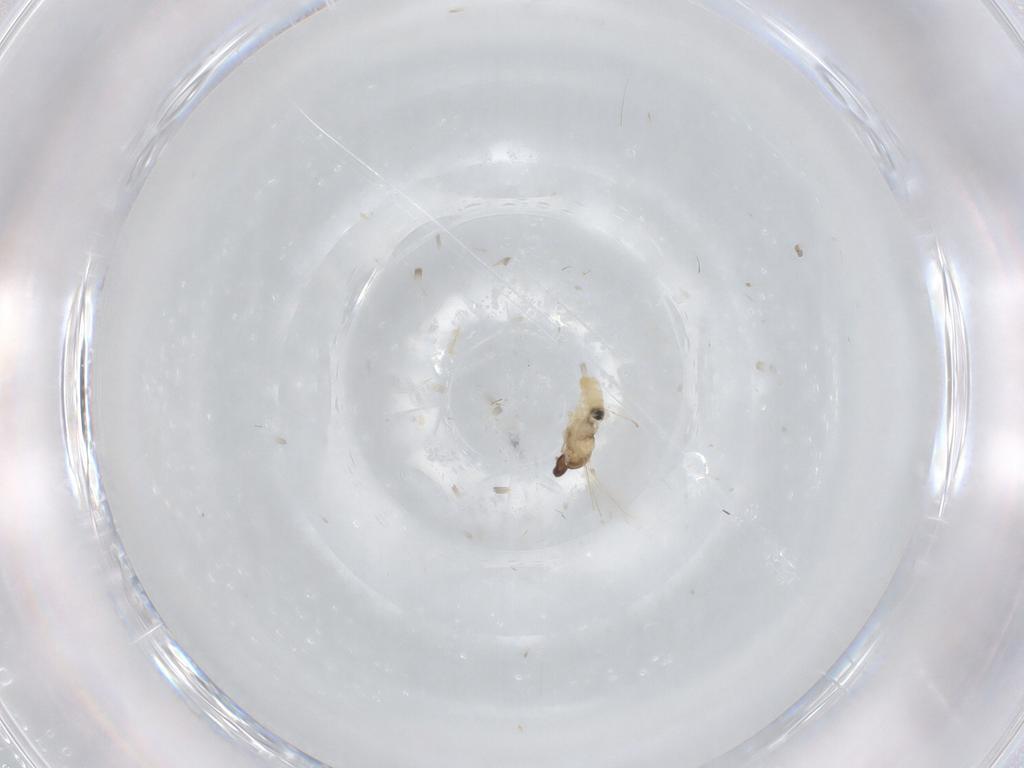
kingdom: Animalia
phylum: Arthropoda
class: Insecta
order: Diptera
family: Cecidomyiidae
